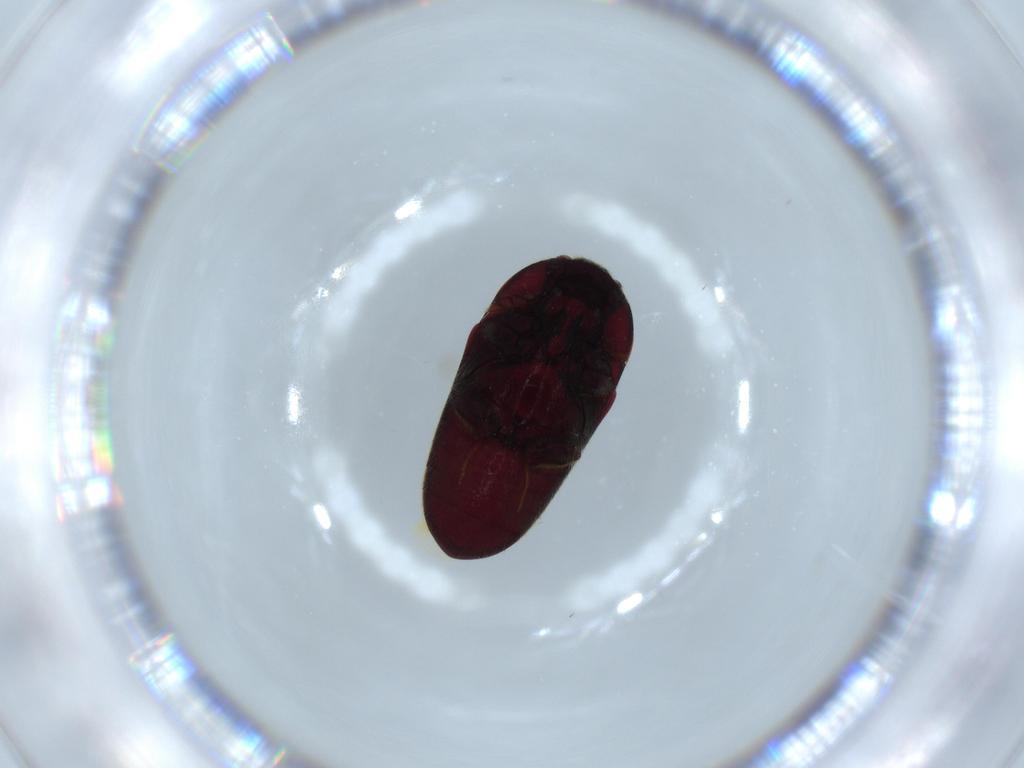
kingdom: Animalia
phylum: Arthropoda
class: Insecta
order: Coleoptera
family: Throscidae
